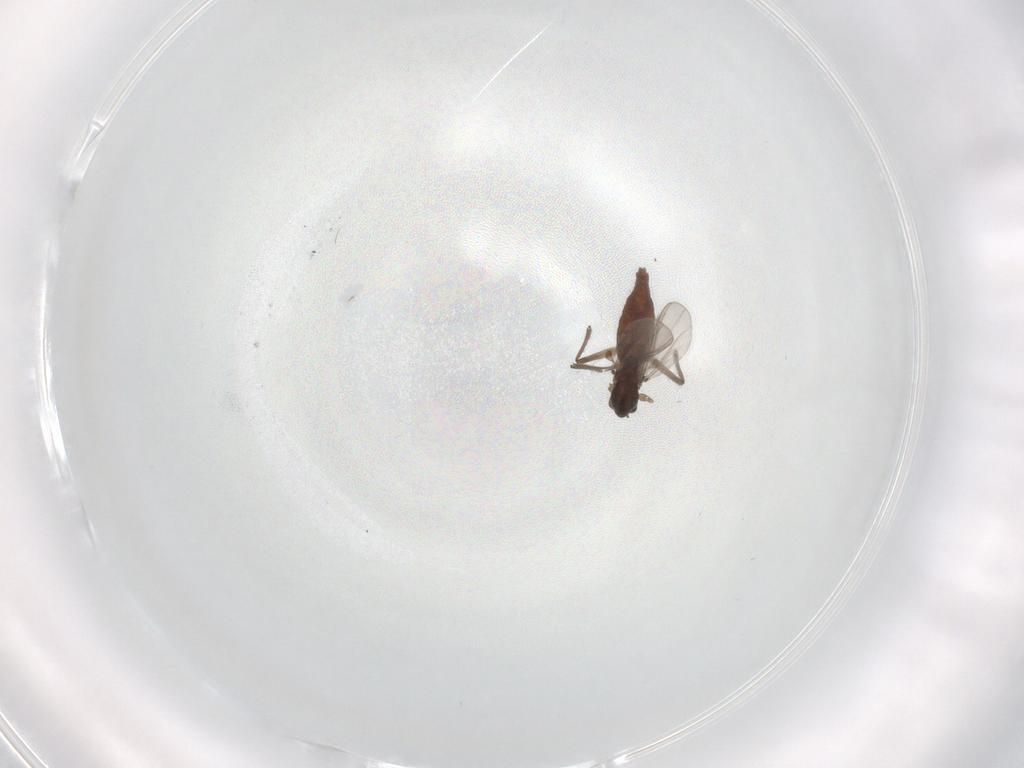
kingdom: Animalia
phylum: Arthropoda
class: Insecta
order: Diptera
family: Chironomidae
